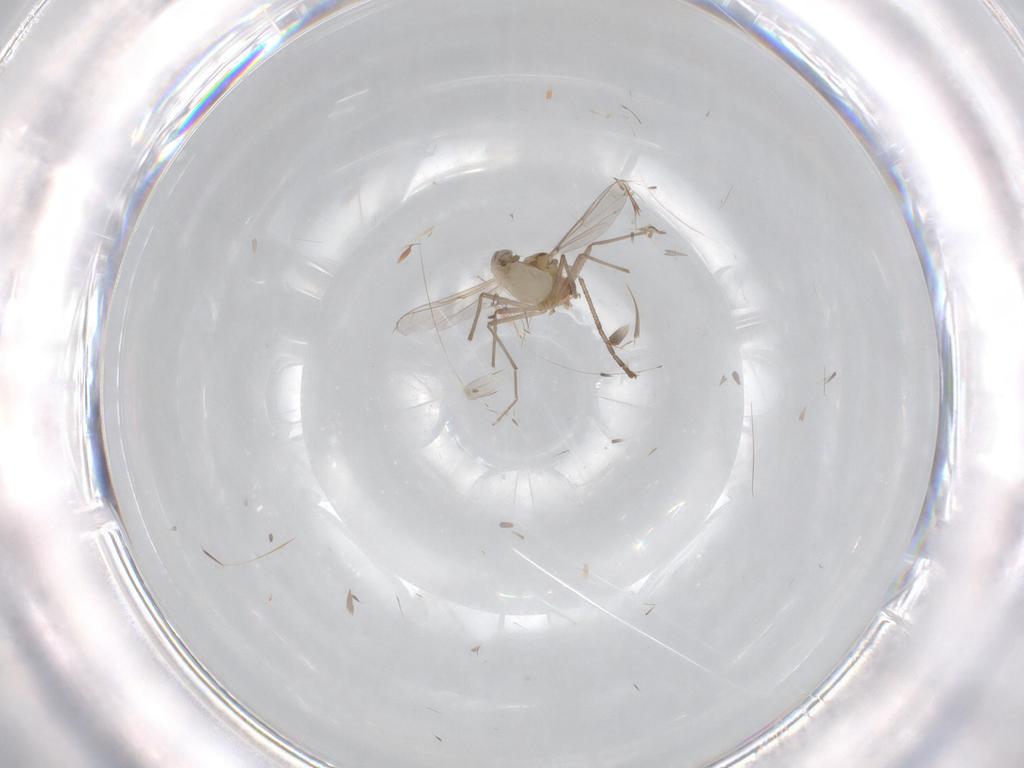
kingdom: Animalia
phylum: Arthropoda
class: Insecta
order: Diptera
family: Chironomidae
